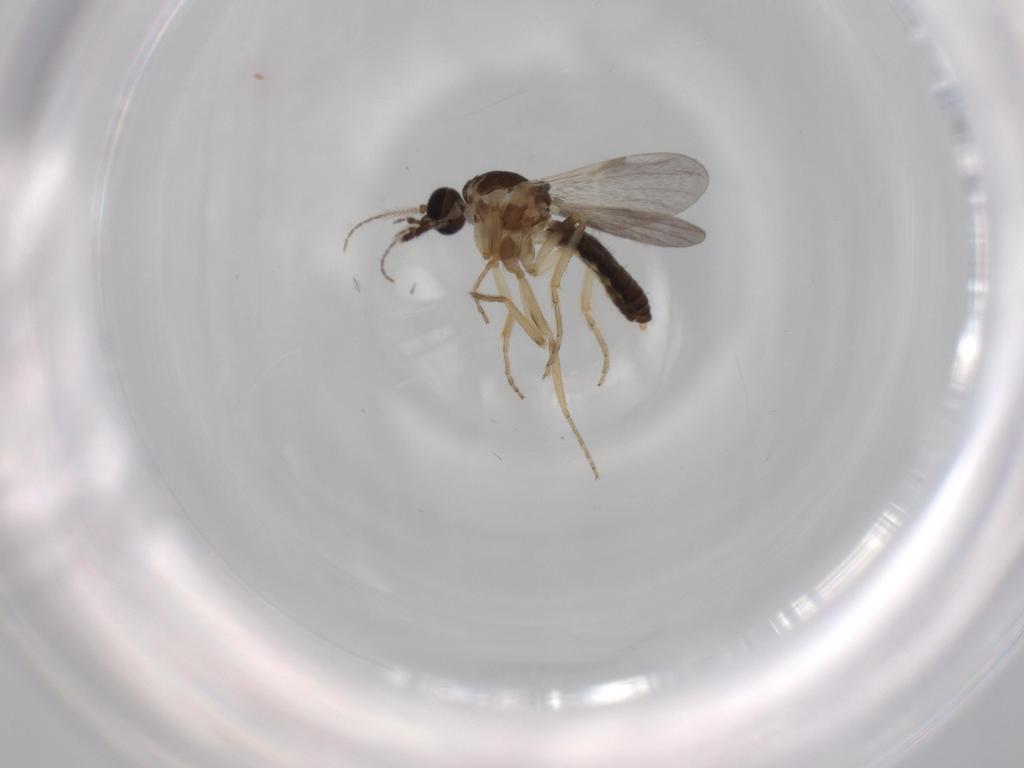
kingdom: Animalia
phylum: Arthropoda
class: Insecta
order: Diptera
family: Ceratopogonidae
